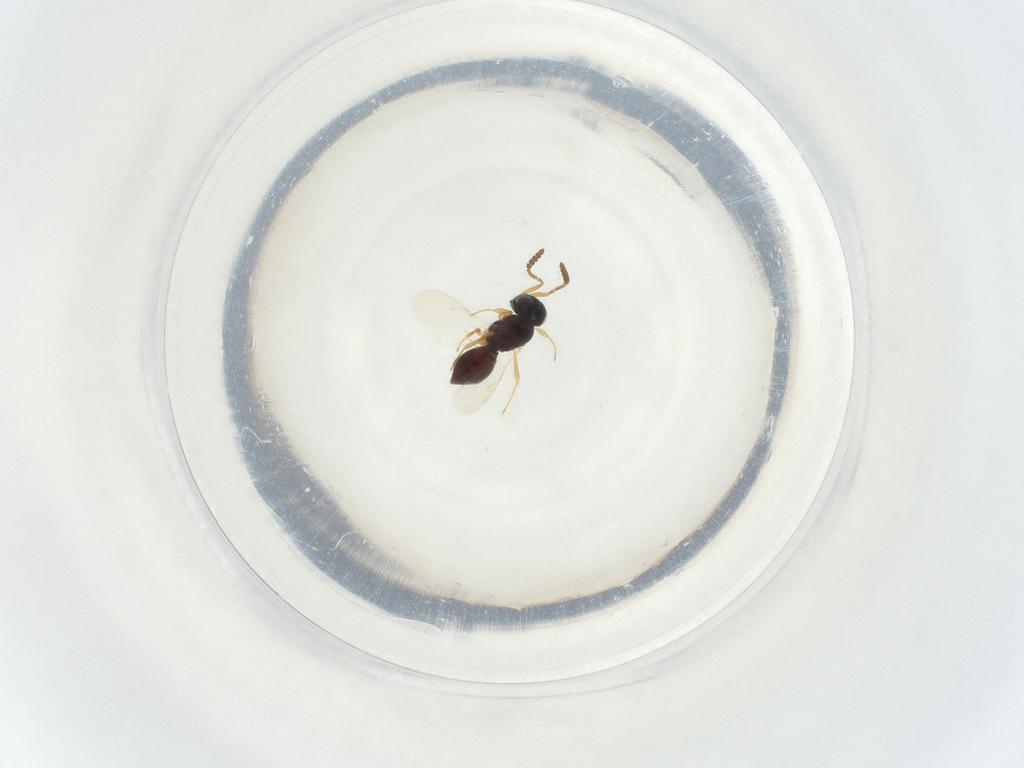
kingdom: Animalia
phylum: Arthropoda
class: Insecta
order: Hymenoptera
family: Scelionidae
